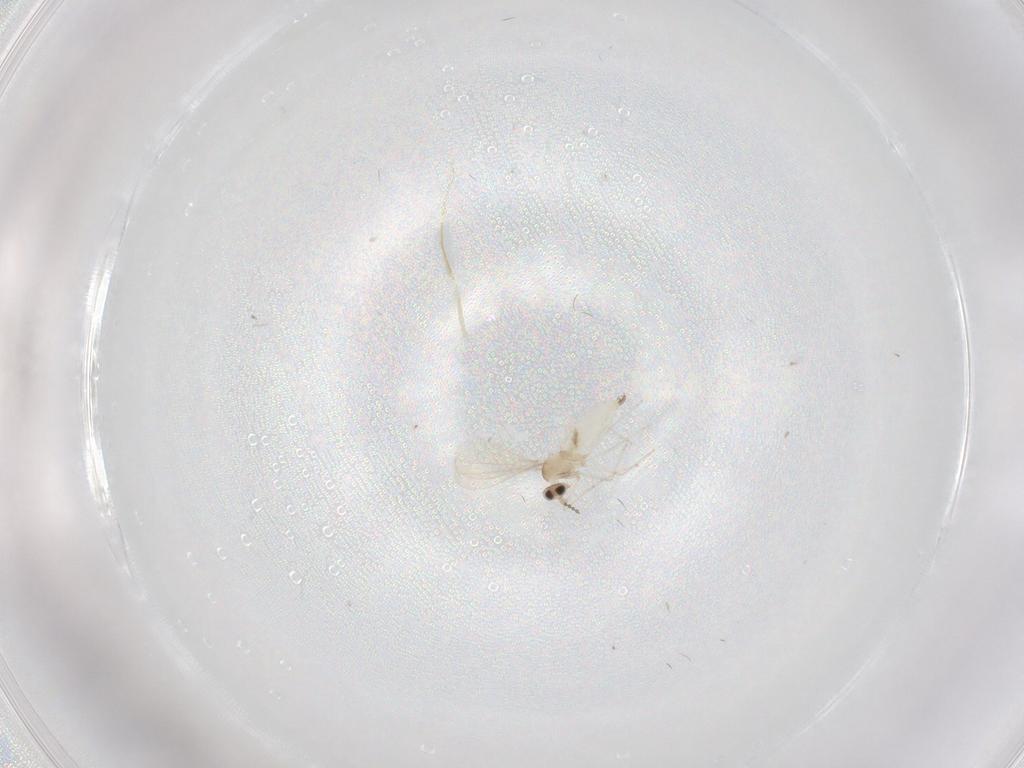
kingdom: Animalia
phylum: Arthropoda
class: Insecta
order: Diptera
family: Cecidomyiidae
